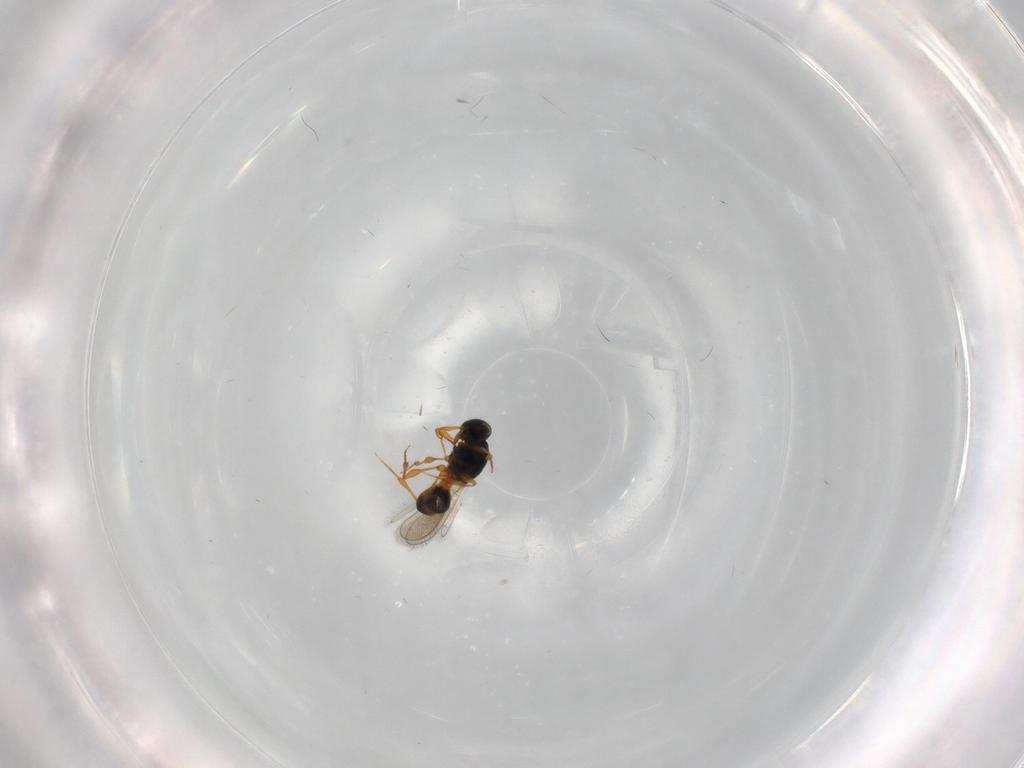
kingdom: Animalia
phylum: Arthropoda
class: Insecta
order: Hymenoptera
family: Platygastridae
